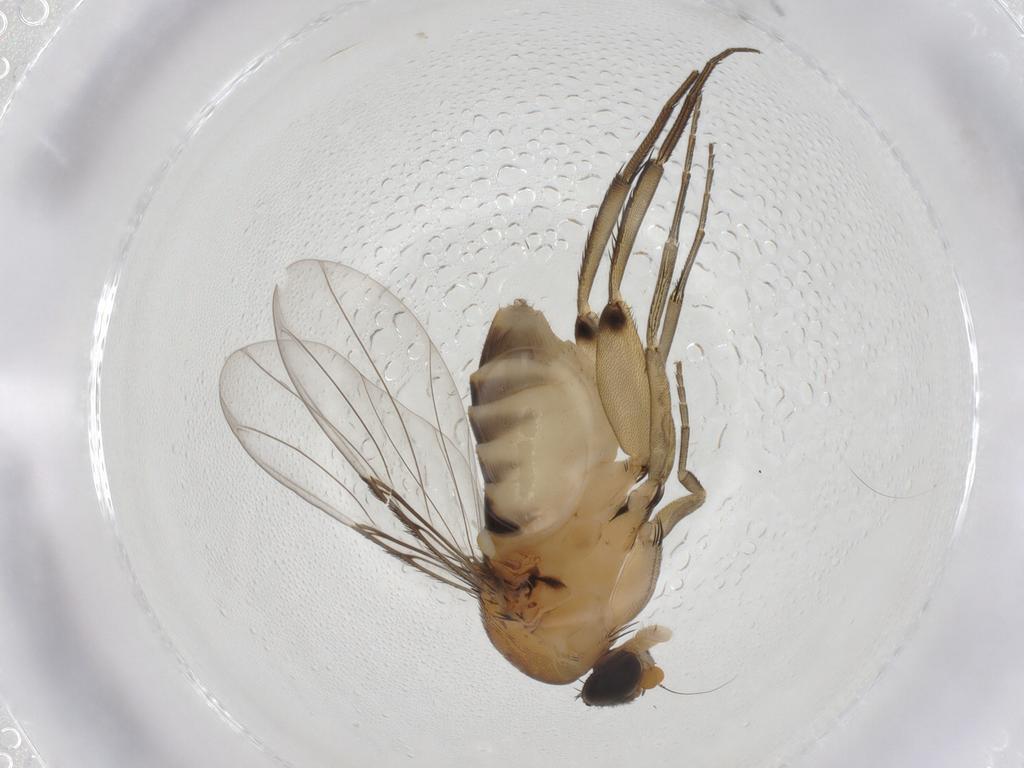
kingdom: Animalia
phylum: Arthropoda
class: Insecta
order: Diptera
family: Phoridae
